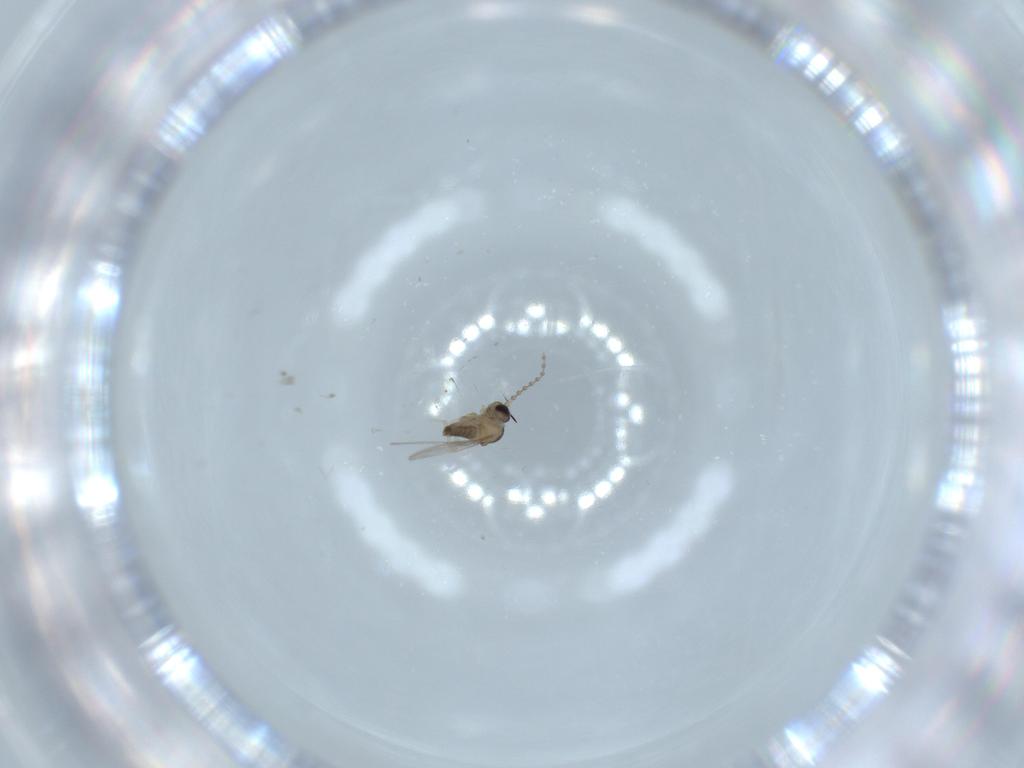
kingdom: Animalia
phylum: Arthropoda
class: Insecta
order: Diptera
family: Cecidomyiidae
